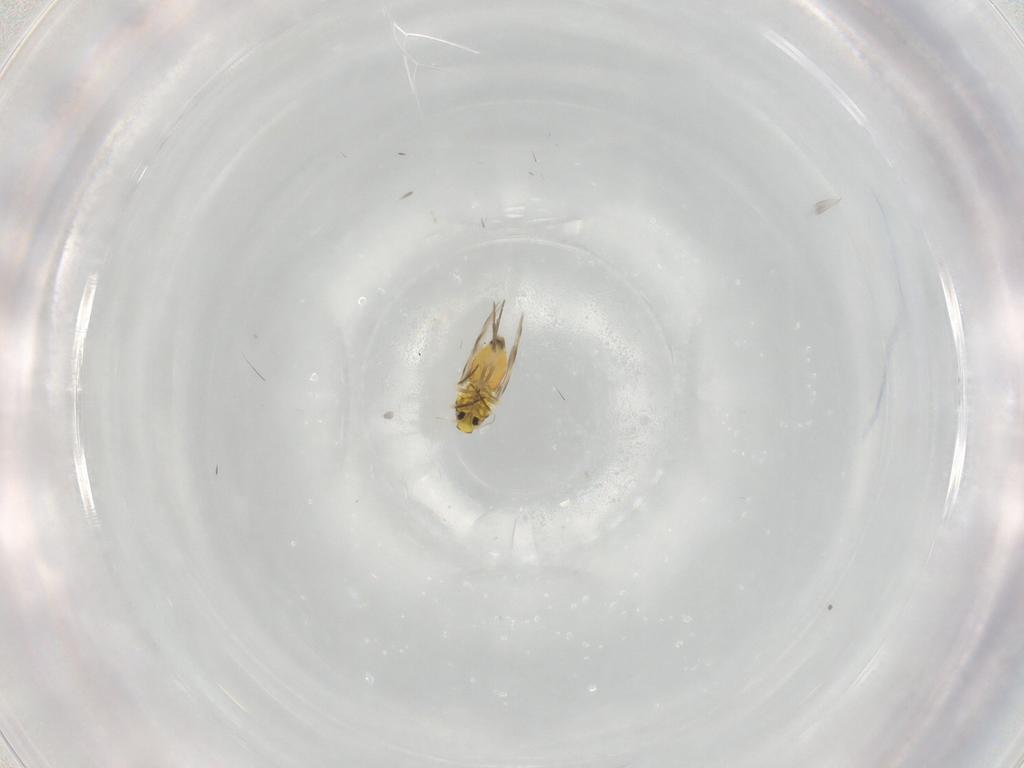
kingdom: Animalia
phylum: Arthropoda
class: Insecta
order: Hemiptera
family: Aleyrodidae
